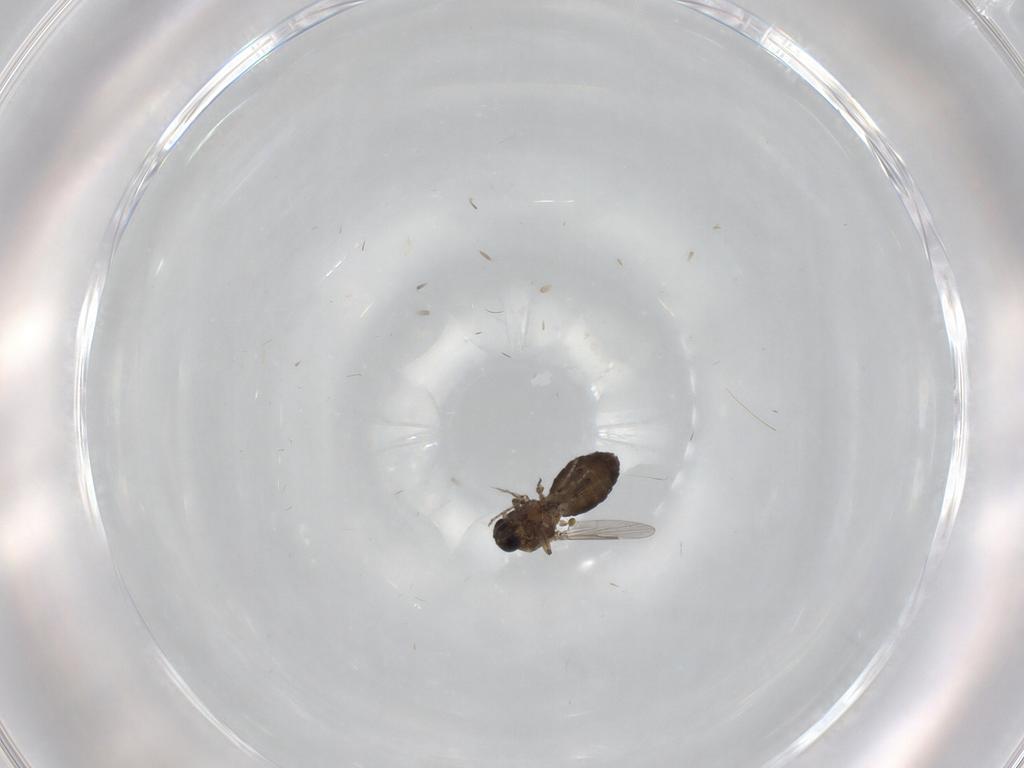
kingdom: Animalia
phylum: Arthropoda
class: Insecta
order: Diptera
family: Ceratopogonidae
